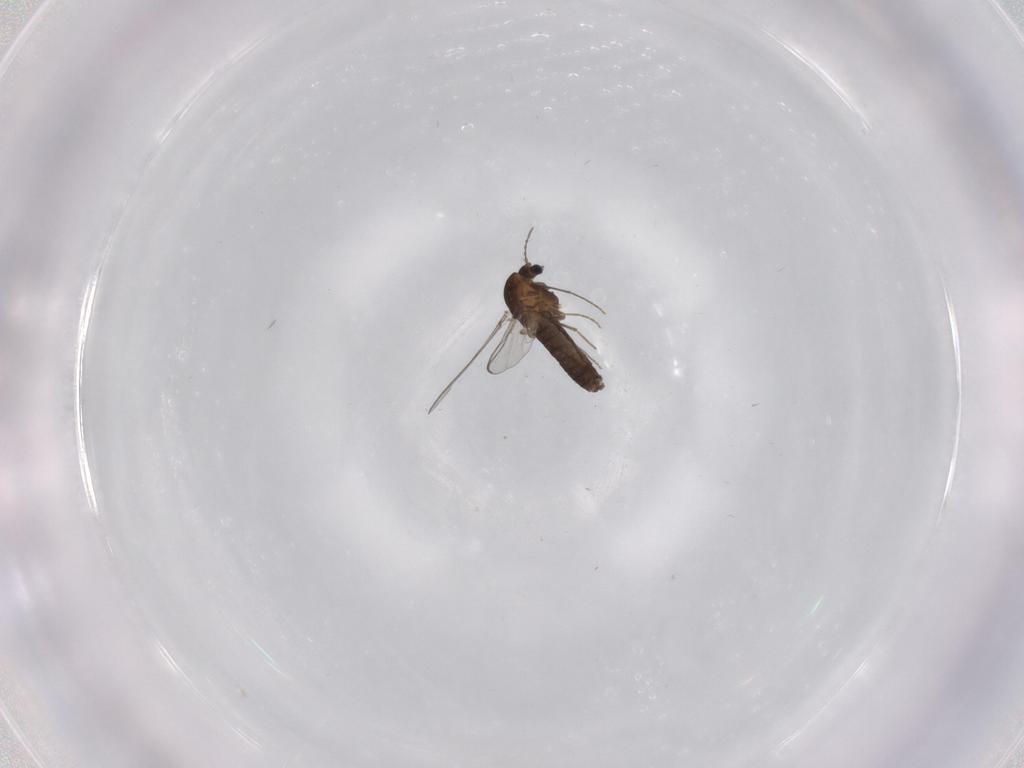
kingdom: Animalia
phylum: Arthropoda
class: Insecta
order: Diptera
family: Chironomidae
